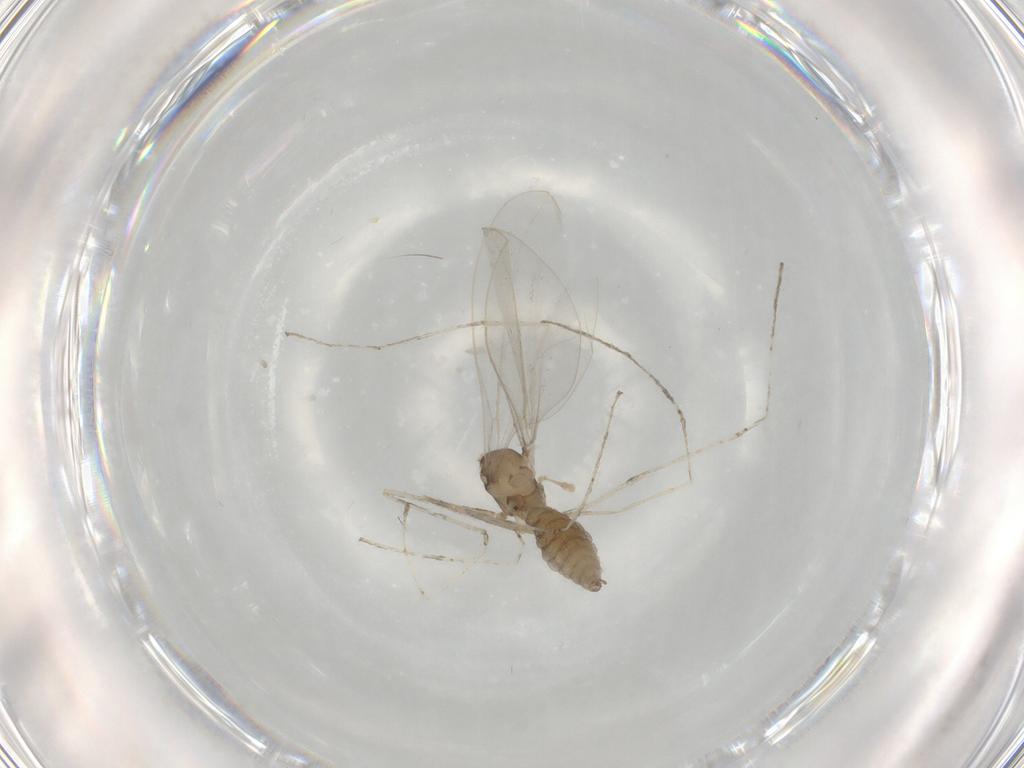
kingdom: Animalia
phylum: Arthropoda
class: Insecta
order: Diptera
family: Cecidomyiidae
